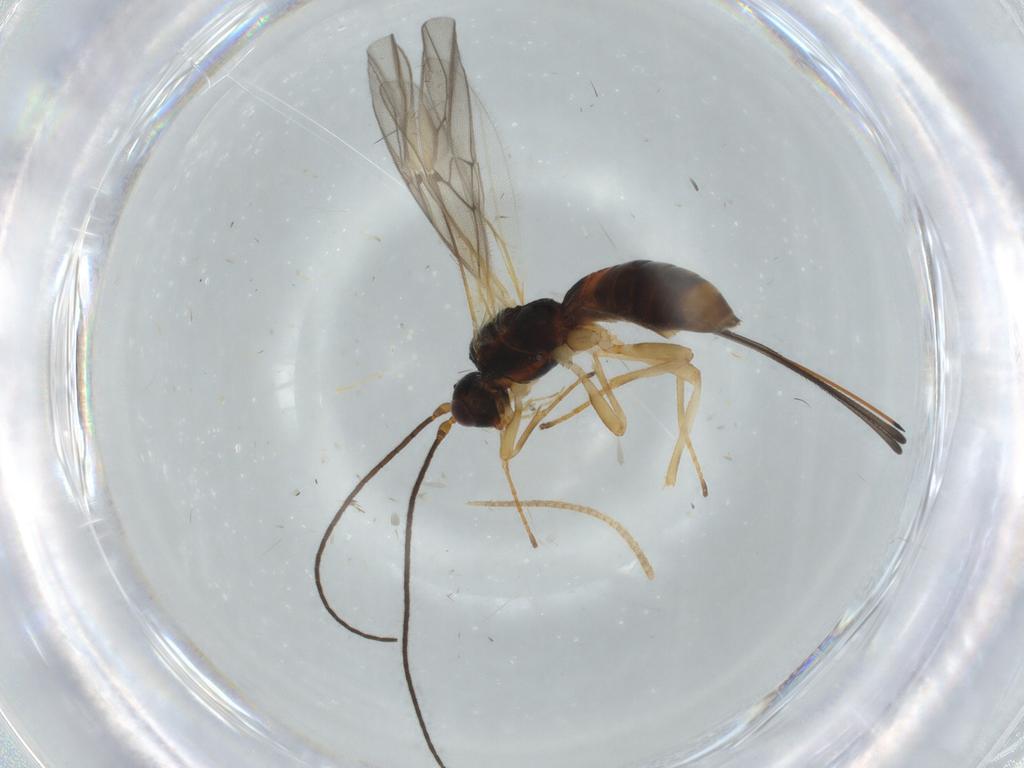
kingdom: Animalia
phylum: Arthropoda
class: Insecta
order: Hymenoptera
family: Braconidae
